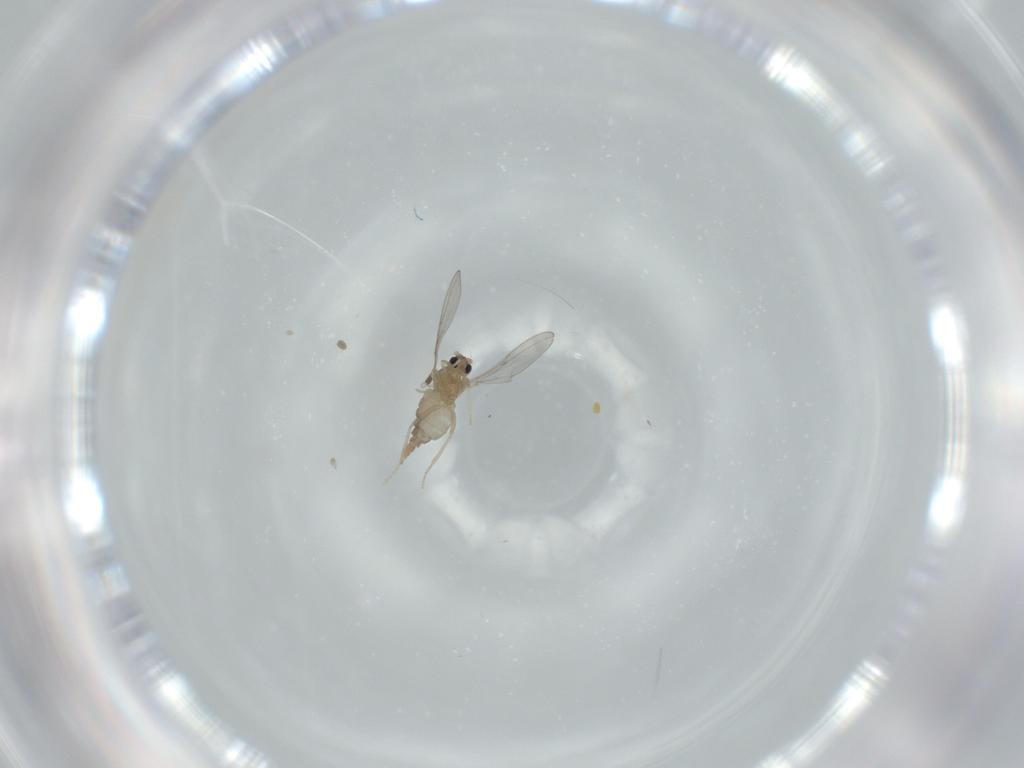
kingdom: Animalia
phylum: Arthropoda
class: Insecta
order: Diptera
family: Cecidomyiidae
